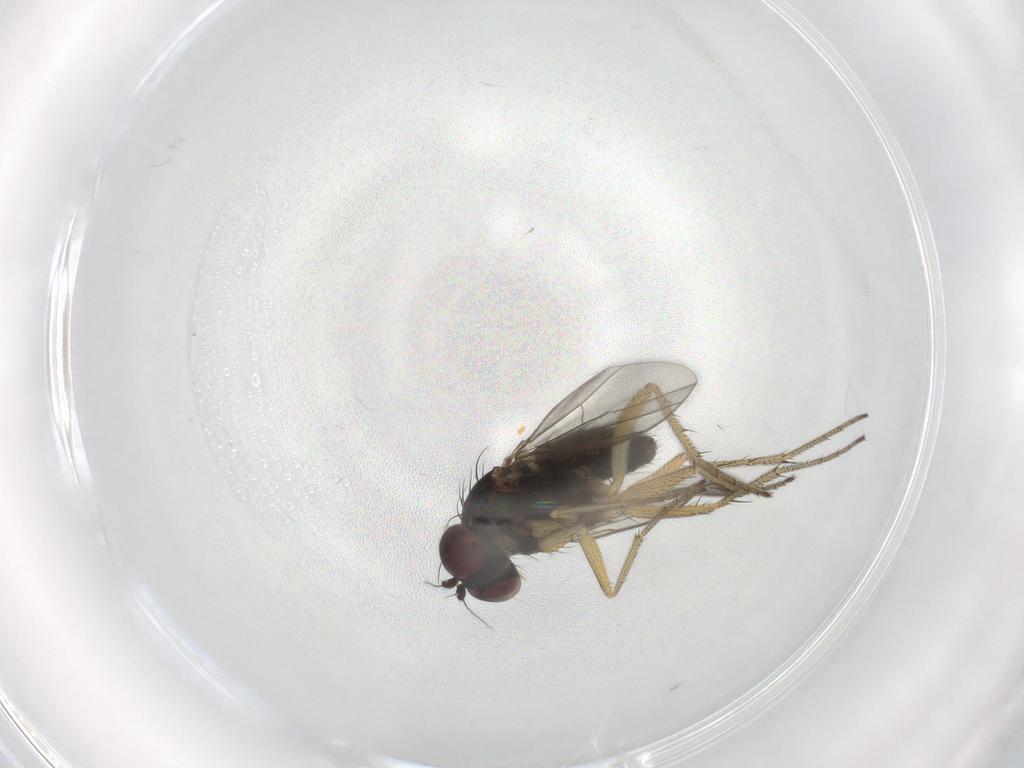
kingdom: Animalia
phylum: Arthropoda
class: Insecta
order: Diptera
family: Dolichopodidae
